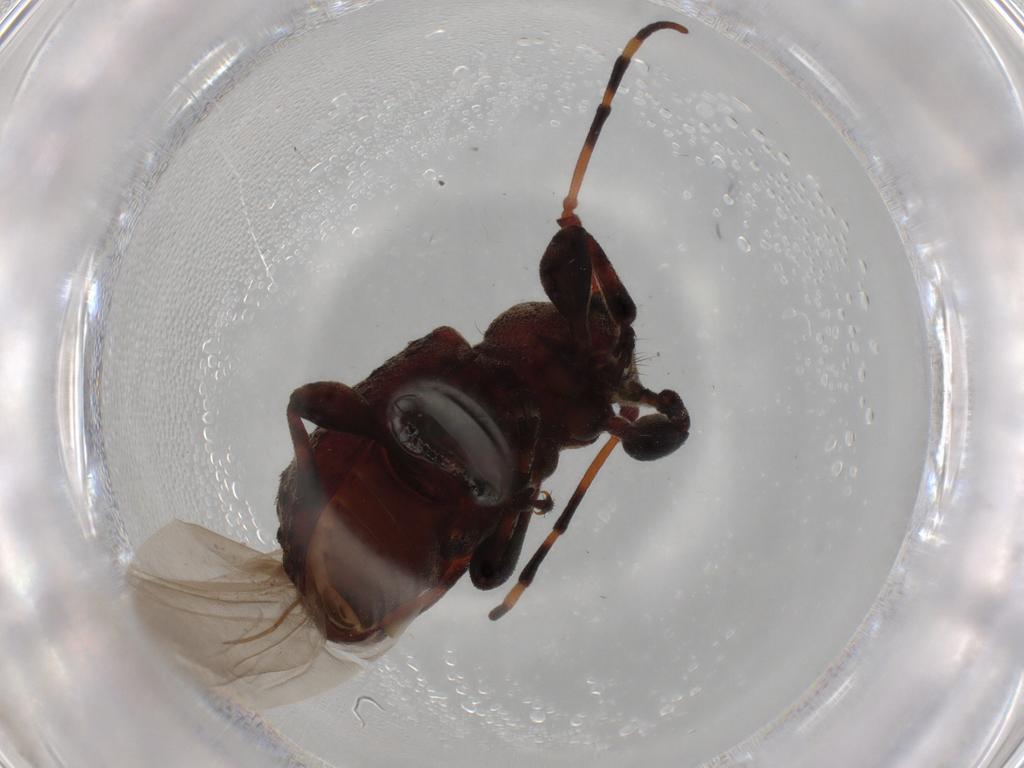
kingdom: Animalia
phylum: Arthropoda
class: Insecta
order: Coleoptera
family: Cerambycidae
